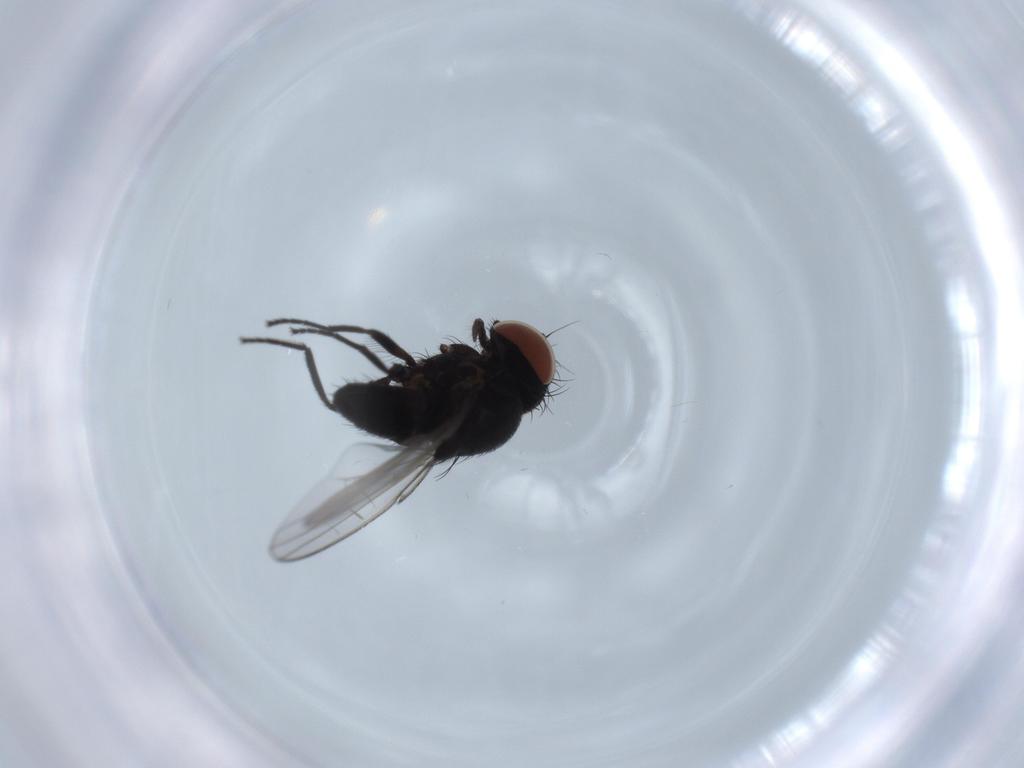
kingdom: Animalia
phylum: Arthropoda
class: Insecta
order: Diptera
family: Milichiidae
